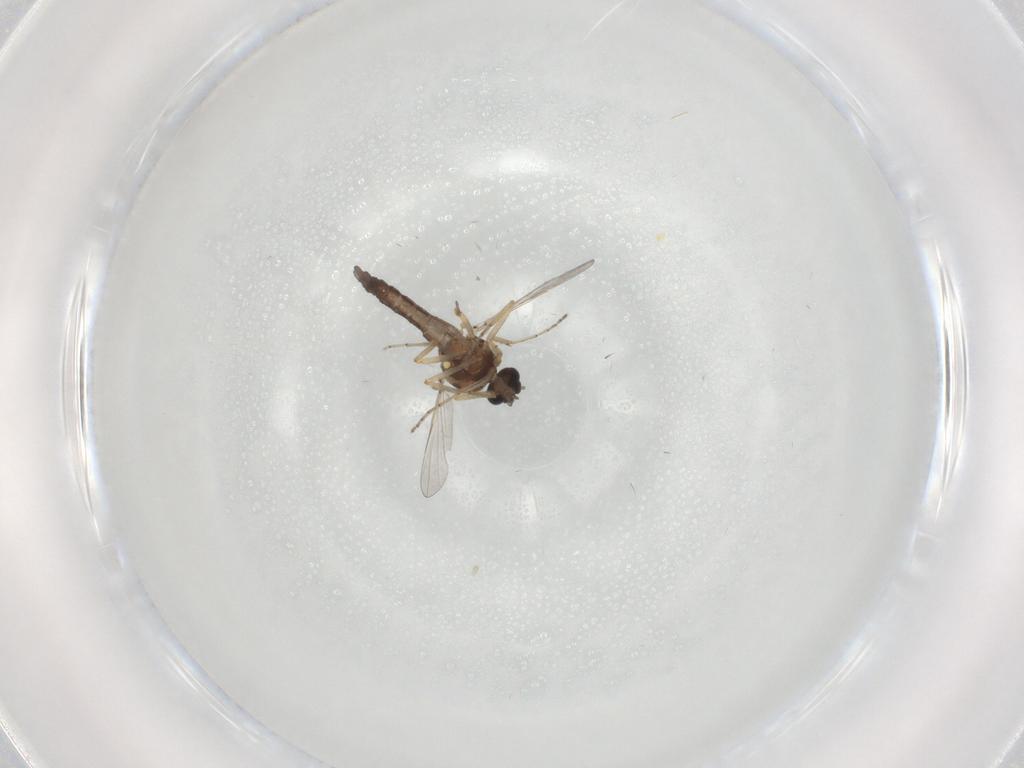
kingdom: Animalia
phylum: Arthropoda
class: Insecta
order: Diptera
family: Ceratopogonidae
